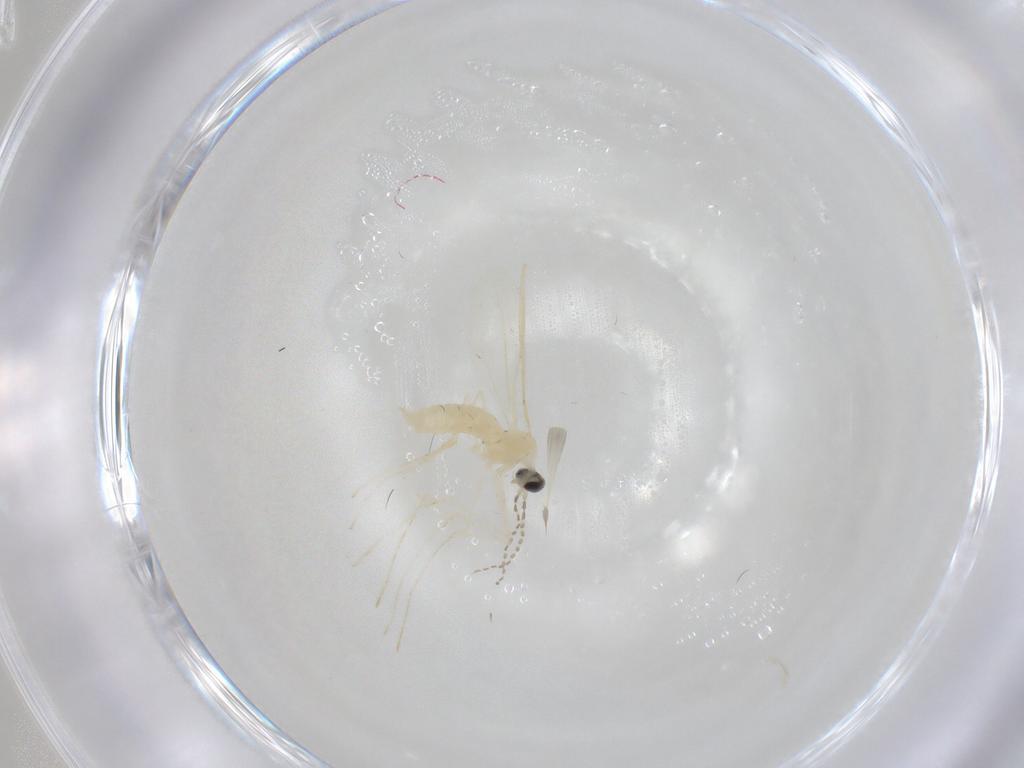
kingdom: Animalia
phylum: Arthropoda
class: Insecta
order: Diptera
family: Cecidomyiidae
